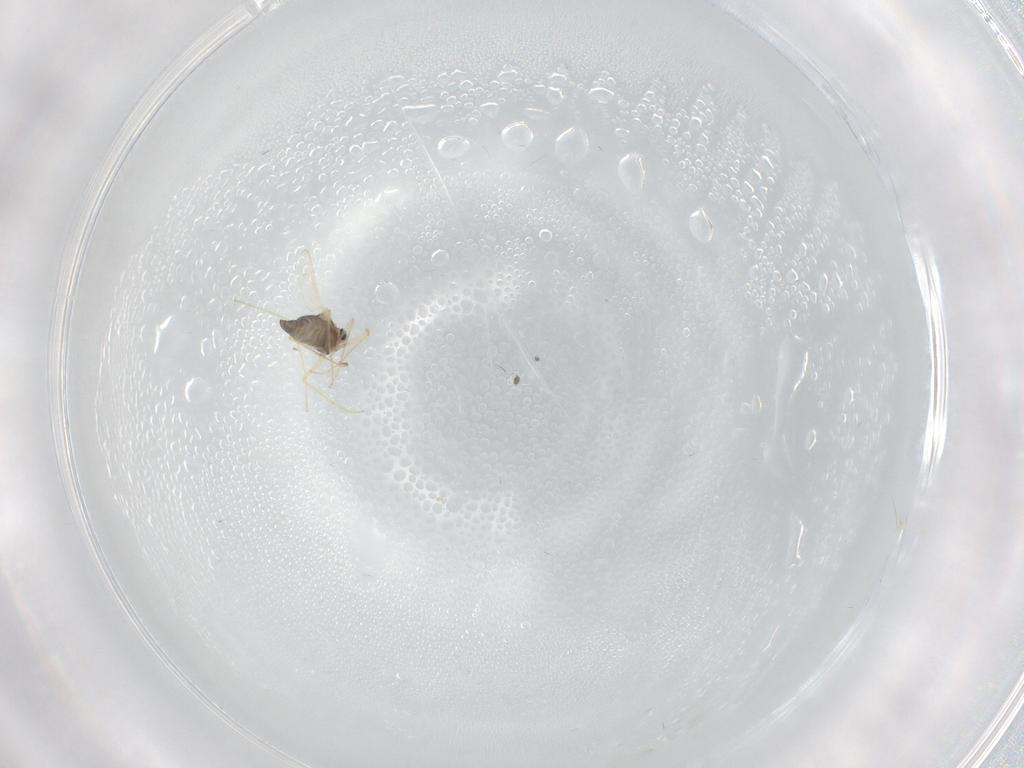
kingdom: Animalia
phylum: Arthropoda
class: Insecta
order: Diptera
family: Chironomidae
